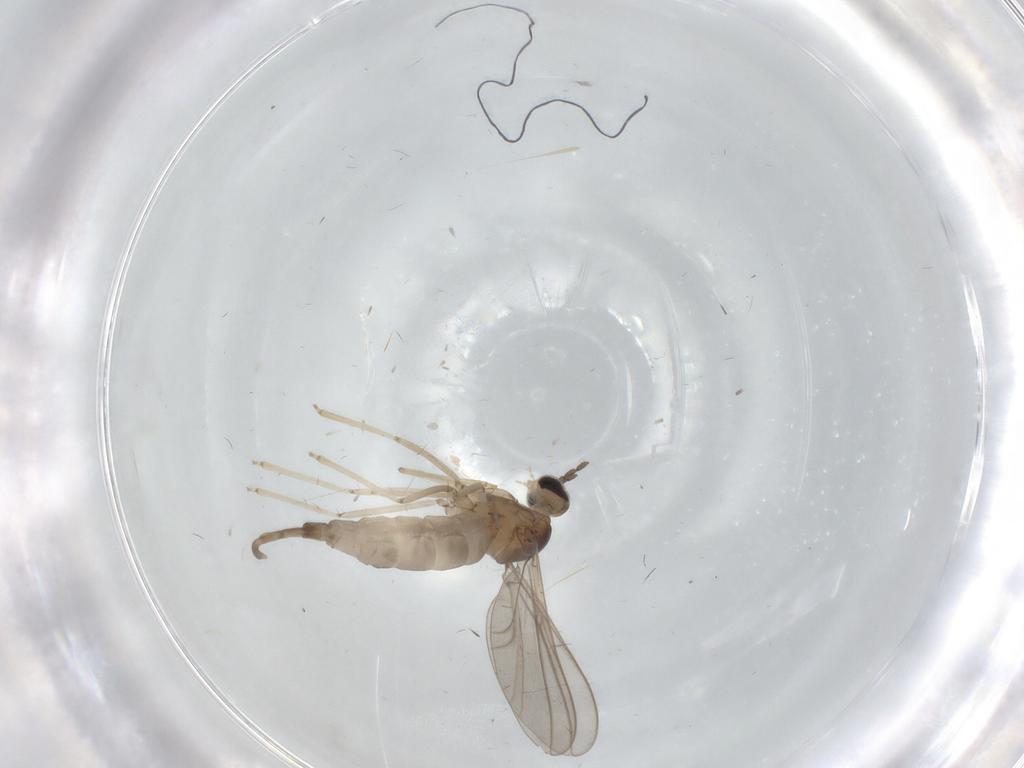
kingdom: Animalia
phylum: Arthropoda
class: Insecta
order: Diptera
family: Cecidomyiidae
